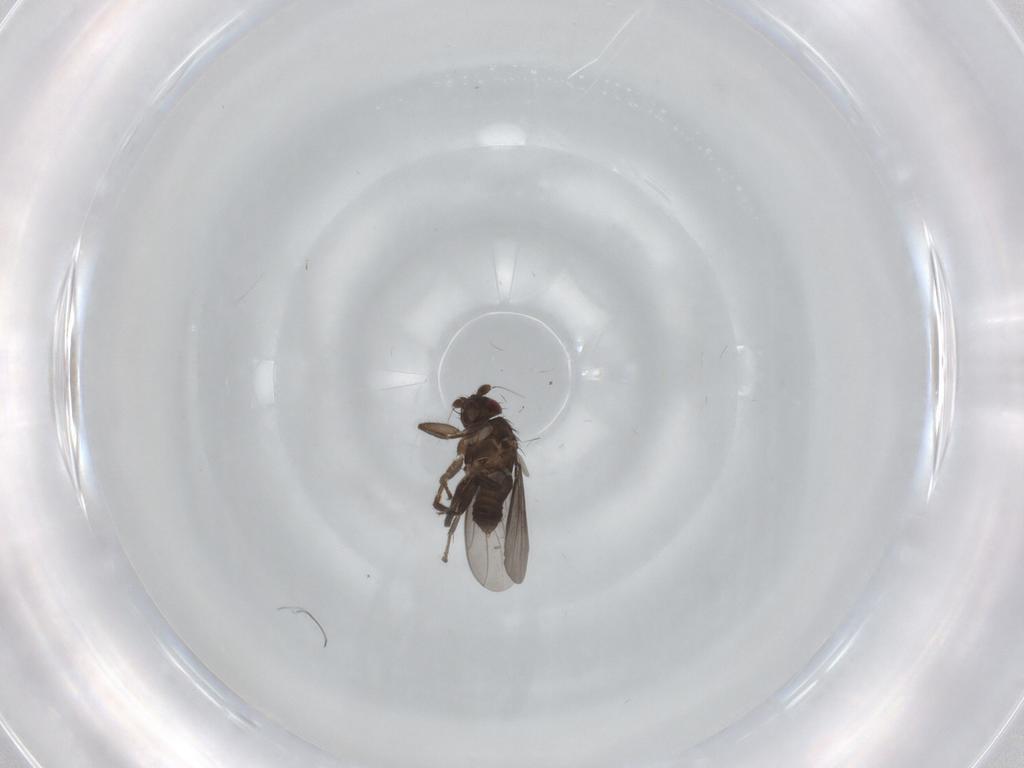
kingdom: Animalia
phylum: Arthropoda
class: Insecta
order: Diptera
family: Sphaeroceridae
